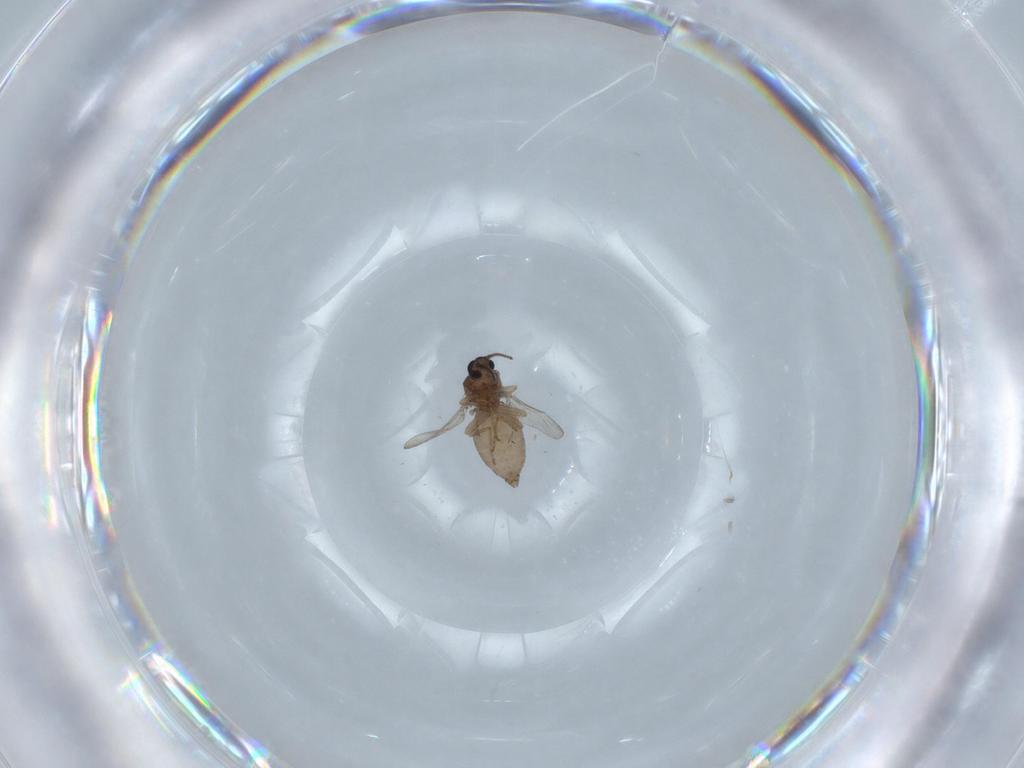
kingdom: Animalia
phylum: Arthropoda
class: Insecta
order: Diptera
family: Ceratopogonidae
